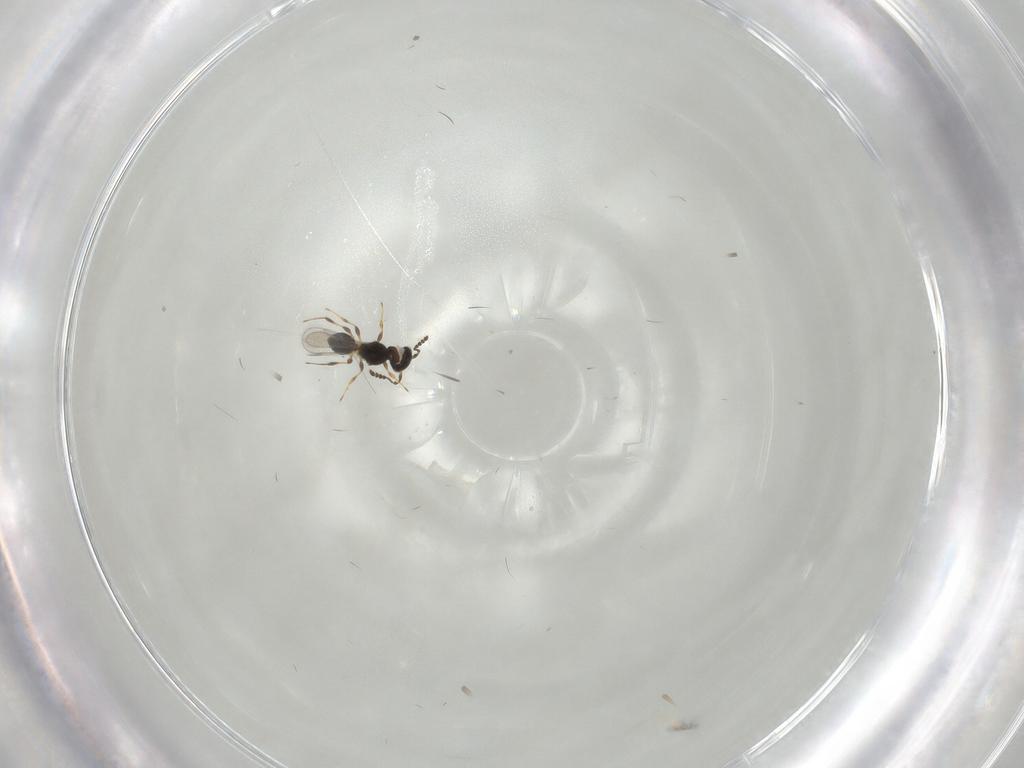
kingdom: Animalia
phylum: Arthropoda
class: Insecta
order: Hymenoptera
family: Platygastridae
